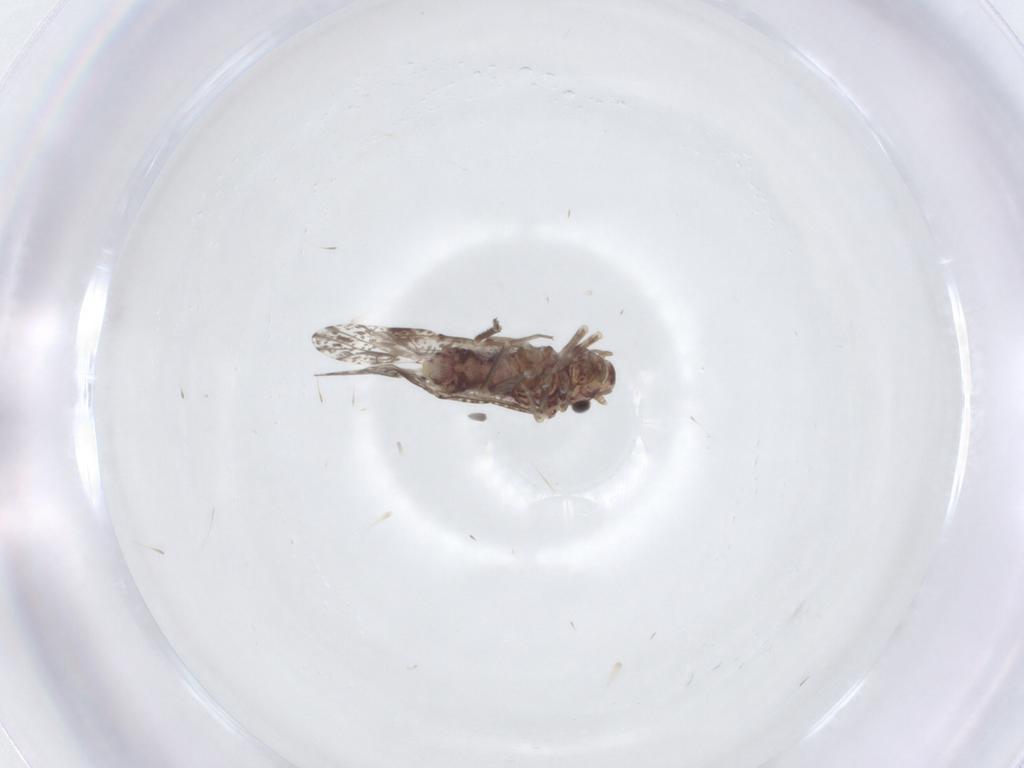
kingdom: Animalia
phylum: Arthropoda
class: Insecta
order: Psocodea
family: Psocidae
